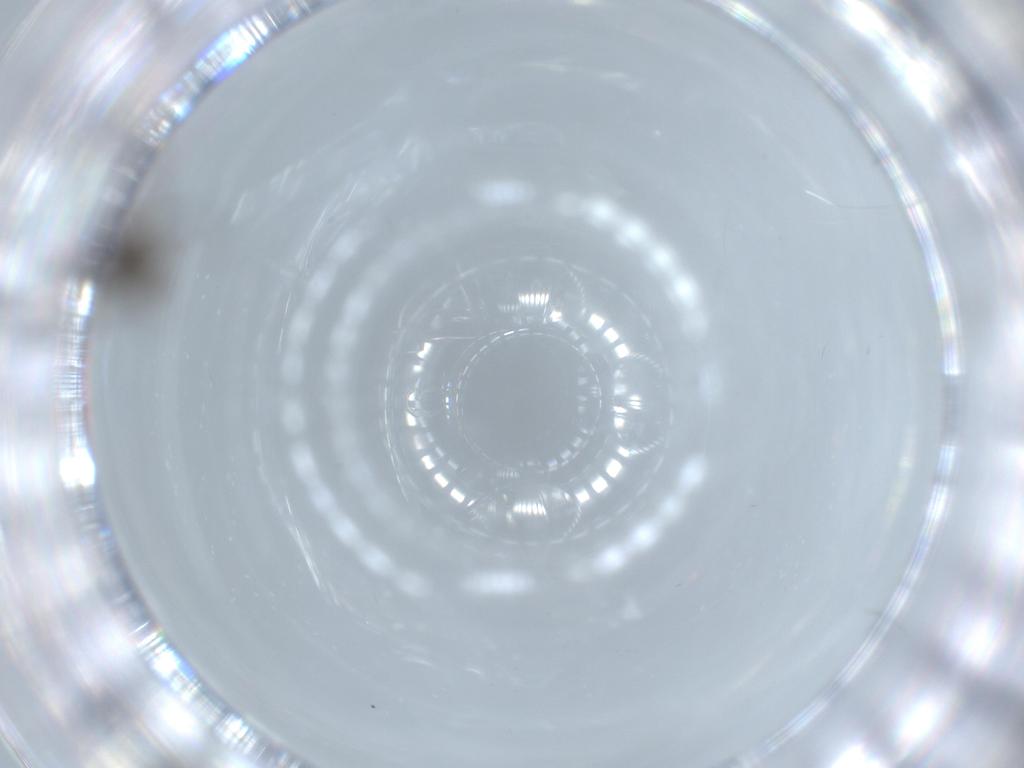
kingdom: Animalia
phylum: Arthropoda
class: Insecta
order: Diptera
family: Cecidomyiidae
